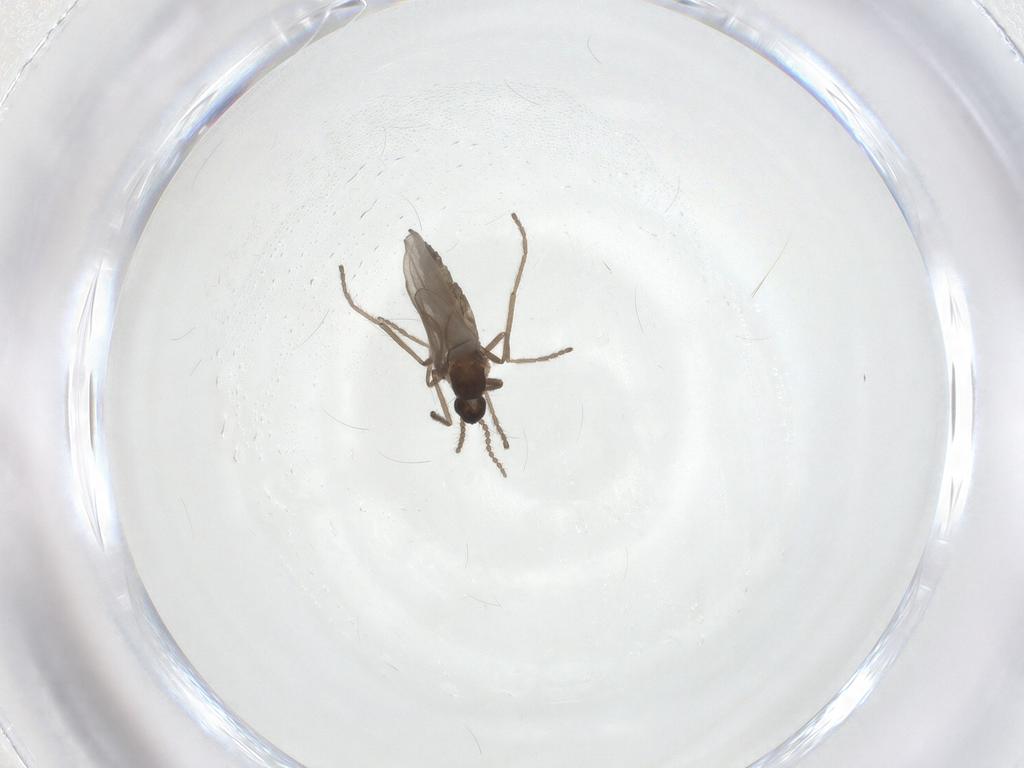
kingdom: Animalia
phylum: Arthropoda
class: Insecta
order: Diptera
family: Cecidomyiidae
